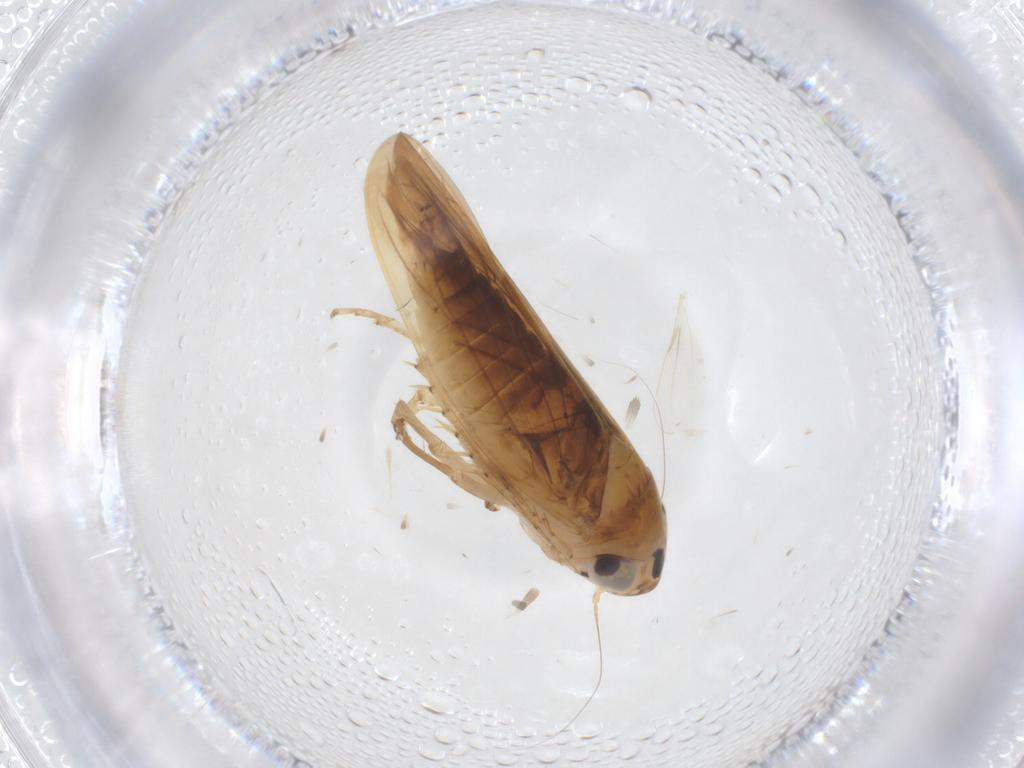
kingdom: Animalia
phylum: Arthropoda
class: Insecta
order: Hemiptera
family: Cicadellidae
